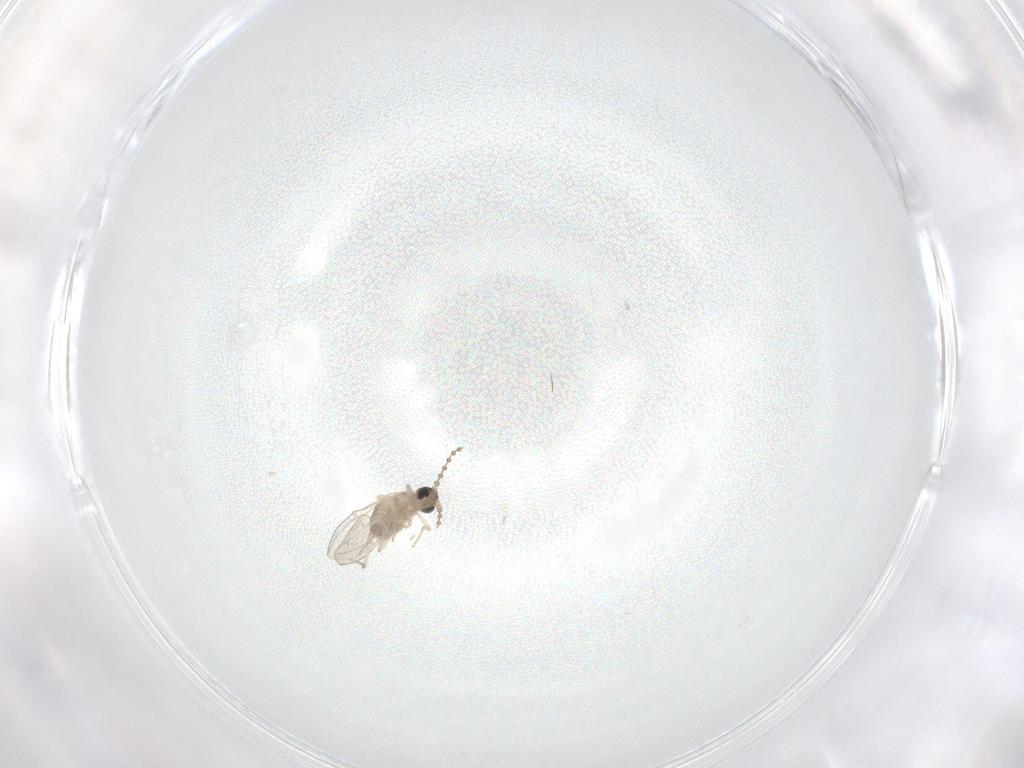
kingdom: Animalia
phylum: Arthropoda
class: Insecta
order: Diptera
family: Cecidomyiidae
